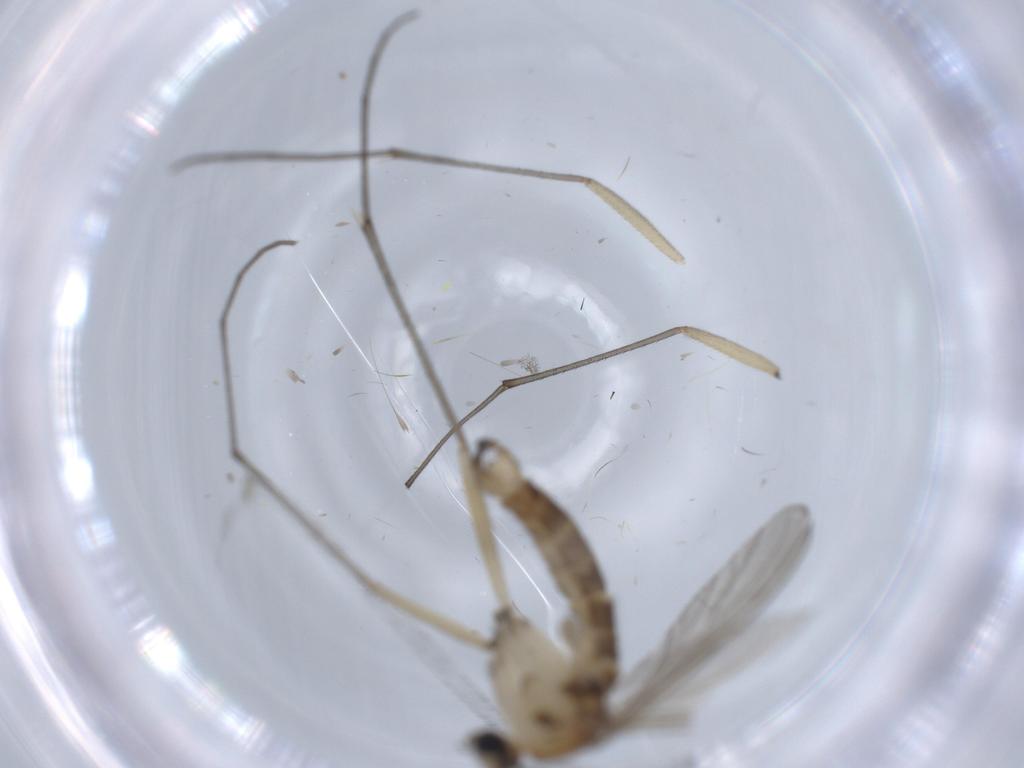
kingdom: Animalia
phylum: Arthropoda
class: Insecta
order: Diptera
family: Sciaridae
